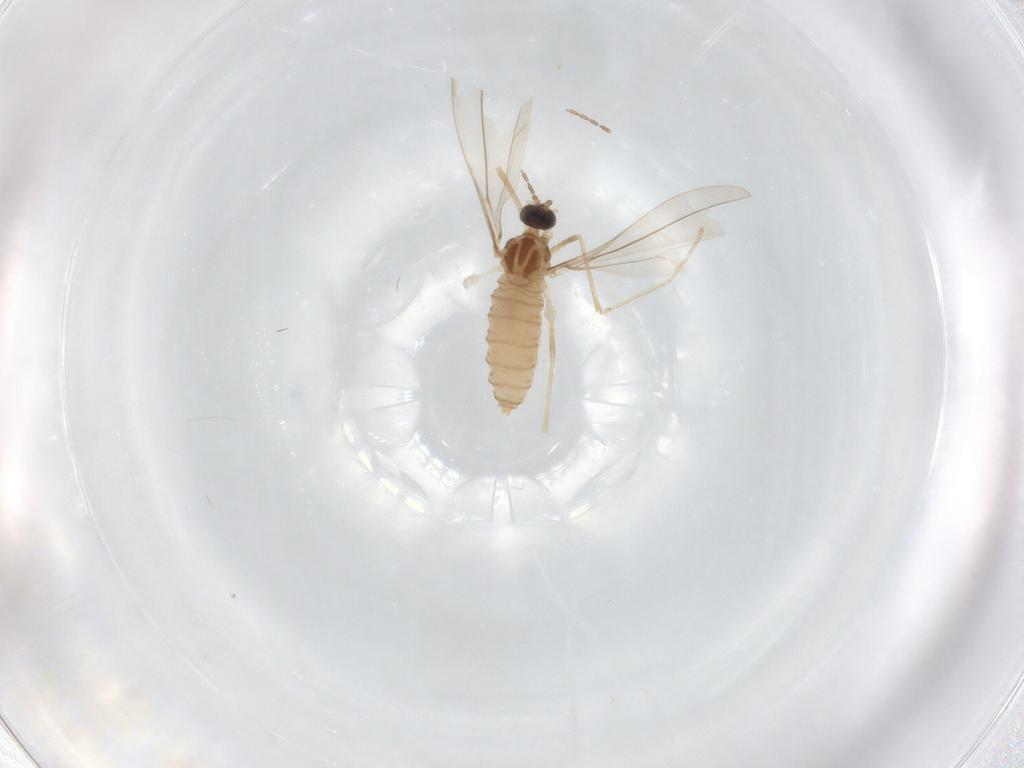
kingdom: Animalia
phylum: Arthropoda
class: Insecta
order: Diptera
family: Cecidomyiidae
